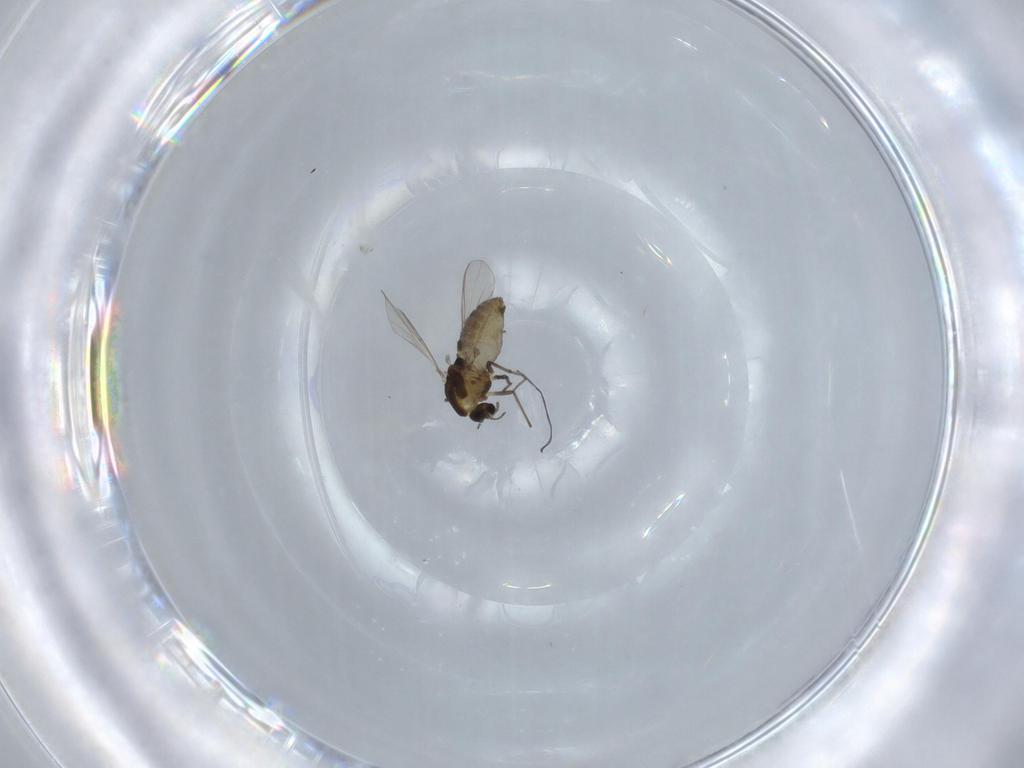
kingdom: Animalia
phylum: Arthropoda
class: Insecta
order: Diptera
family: Chironomidae
